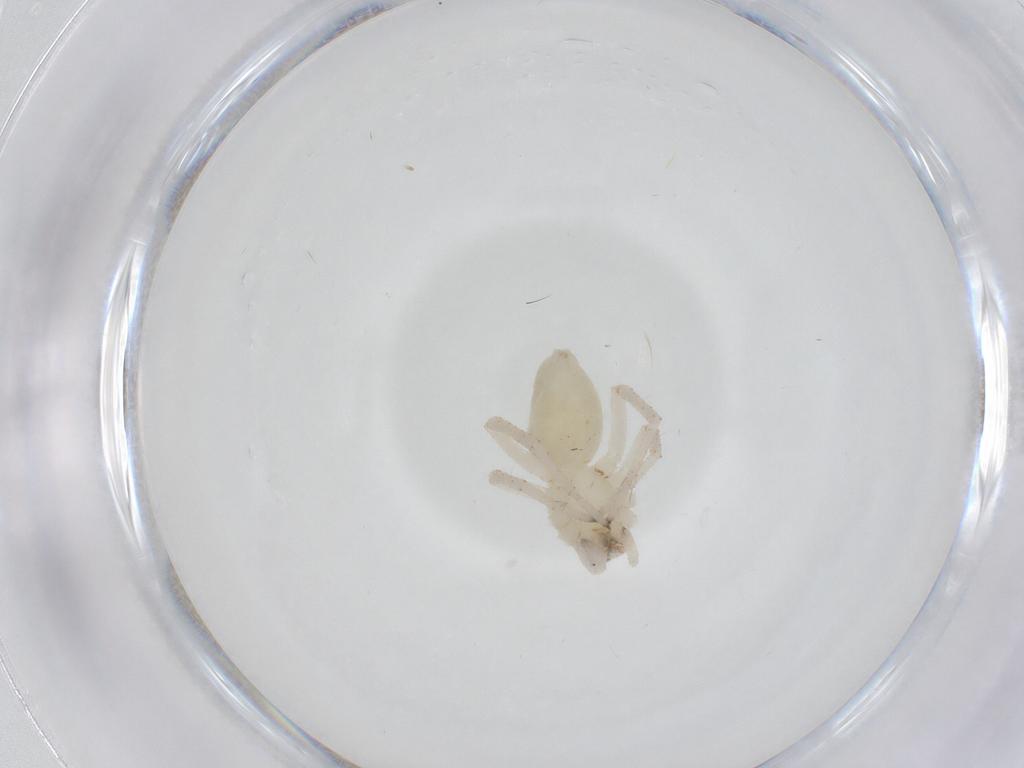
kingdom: Animalia
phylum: Arthropoda
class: Arachnida
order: Araneae
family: Anyphaenidae
